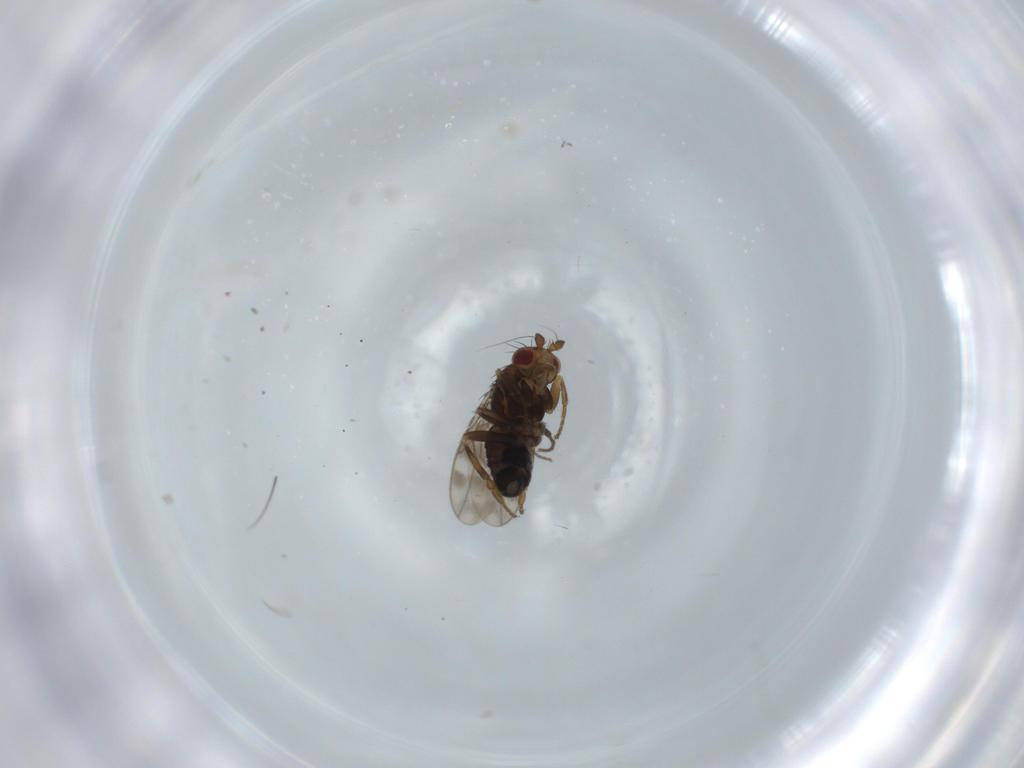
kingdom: Animalia
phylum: Arthropoda
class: Insecta
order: Diptera
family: Sphaeroceridae
